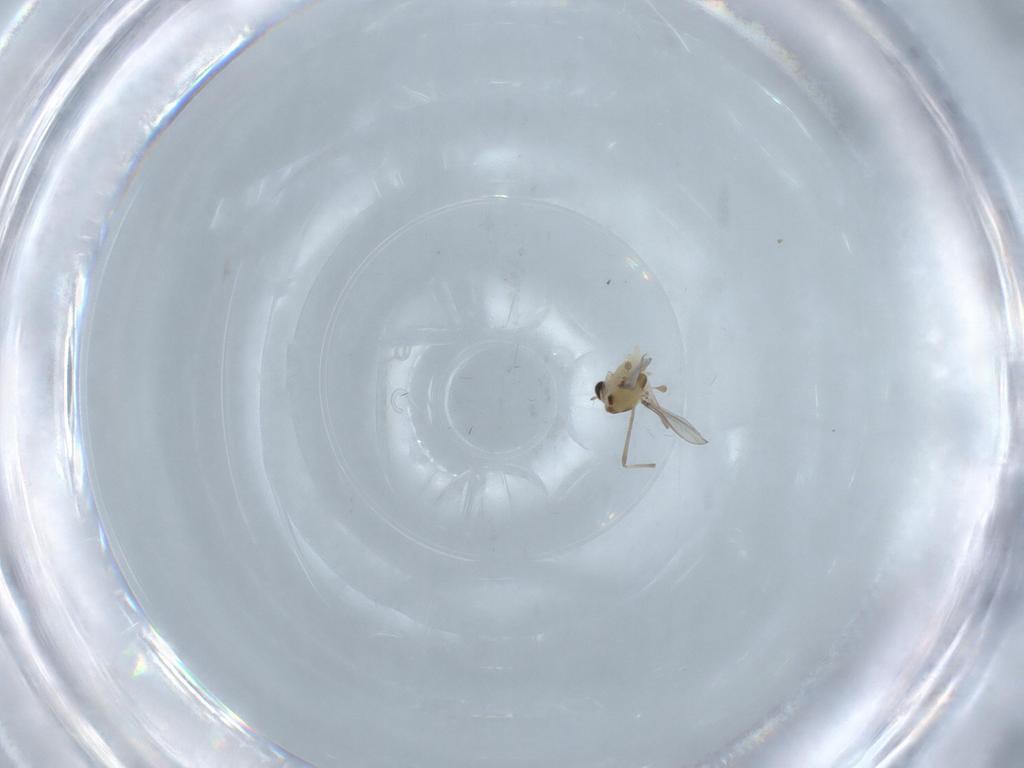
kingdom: Animalia
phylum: Arthropoda
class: Insecta
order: Diptera
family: Chironomidae
